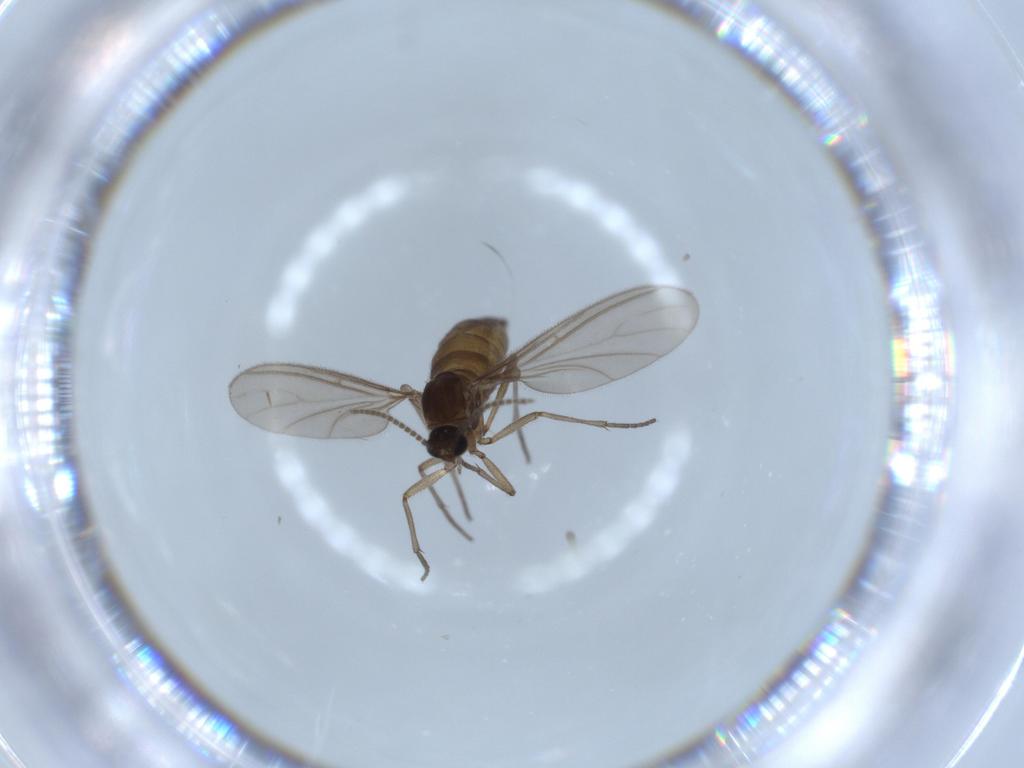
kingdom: Animalia
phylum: Arthropoda
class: Insecta
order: Diptera
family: Sciaridae
